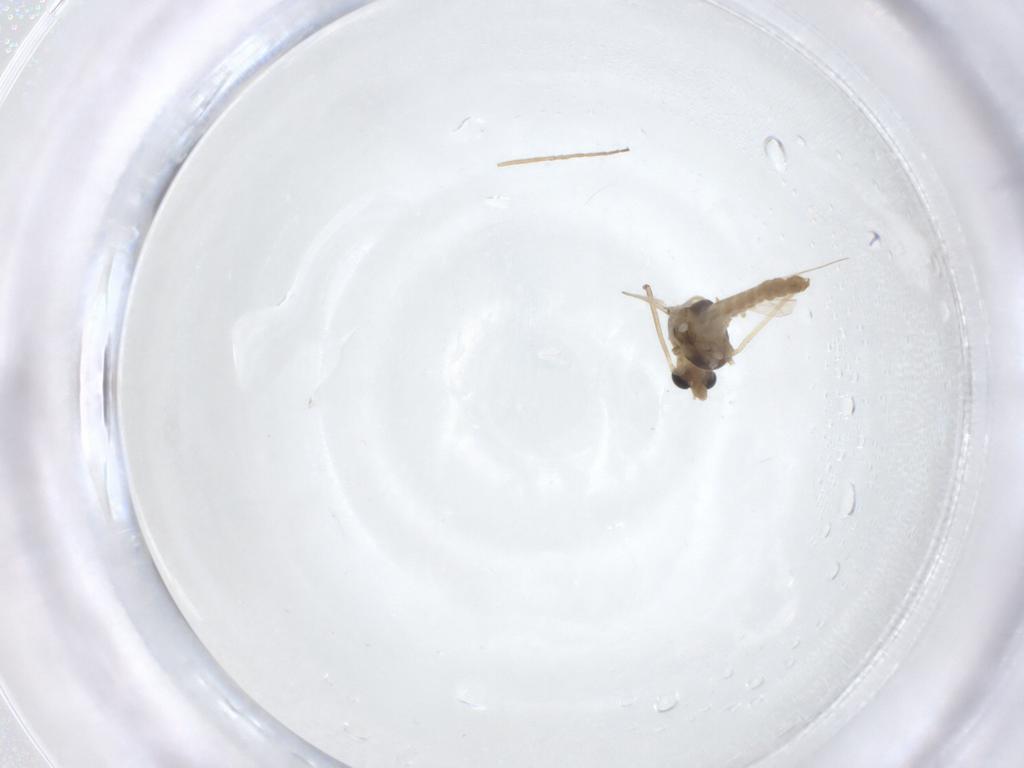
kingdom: Animalia
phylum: Arthropoda
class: Insecta
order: Diptera
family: Chironomidae
